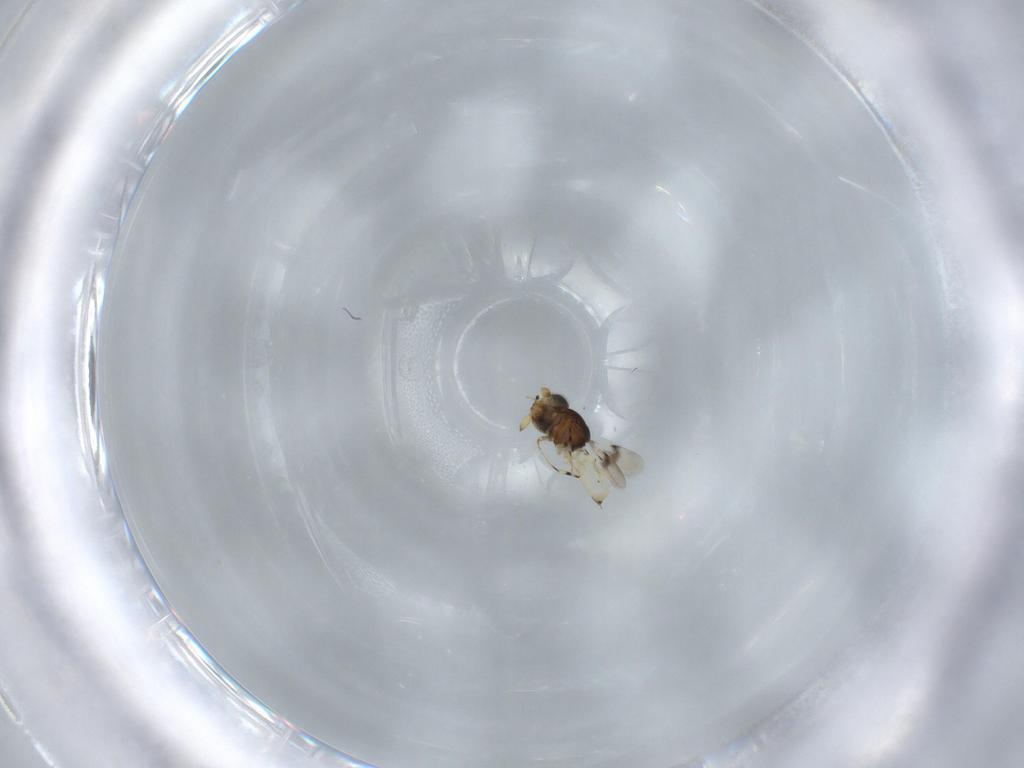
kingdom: Animalia
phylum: Arthropoda
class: Insecta
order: Hymenoptera
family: Scelionidae
